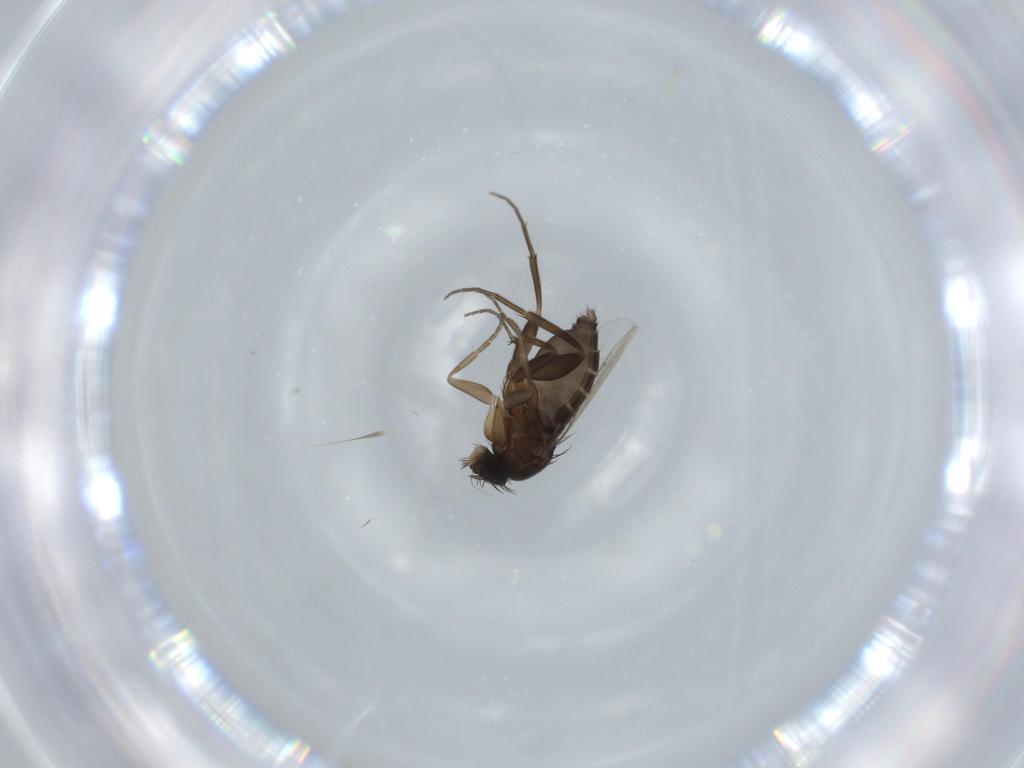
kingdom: Animalia
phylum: Arthropoda
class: Insecta
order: Diptera
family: Phoridae
